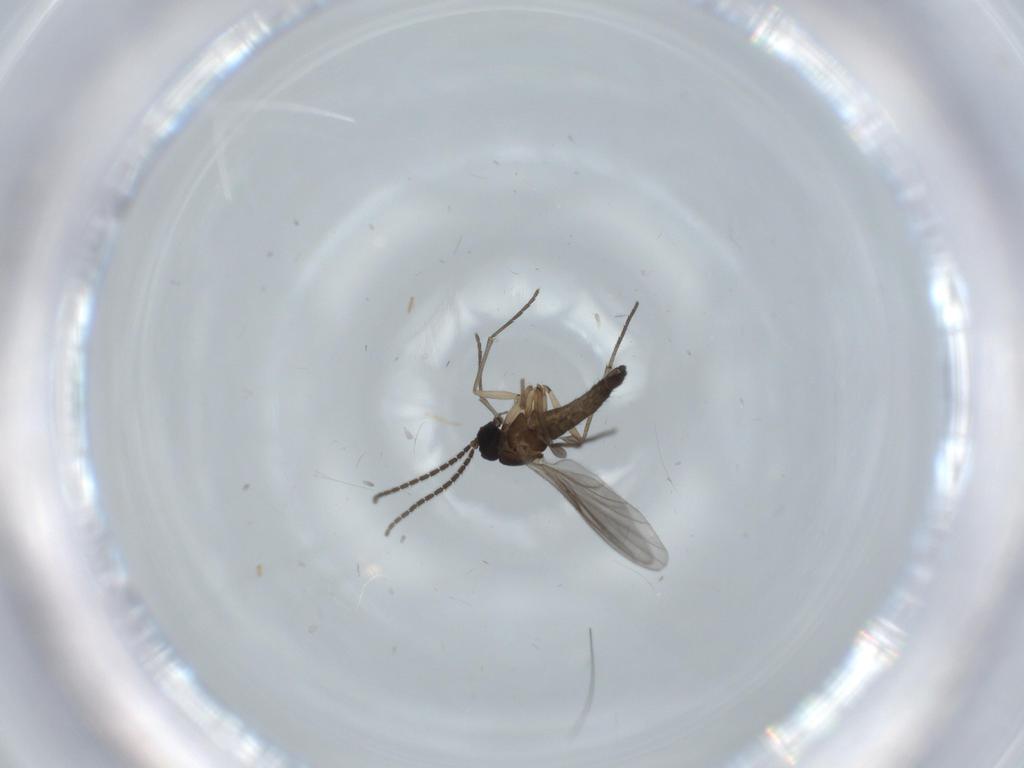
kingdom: Animalia
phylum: Arthropoda
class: Insecta
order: Diptera
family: Sciaridae
